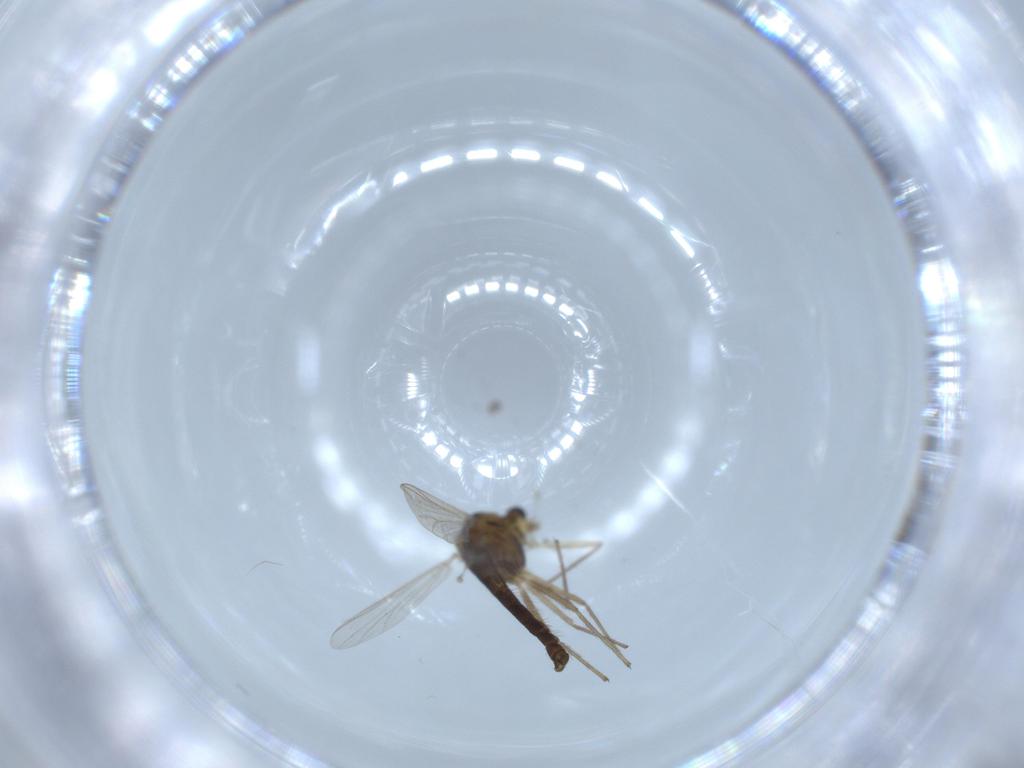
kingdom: Animalia
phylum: Arthropoda
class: Insecta
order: Diptera
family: Chironomidae
